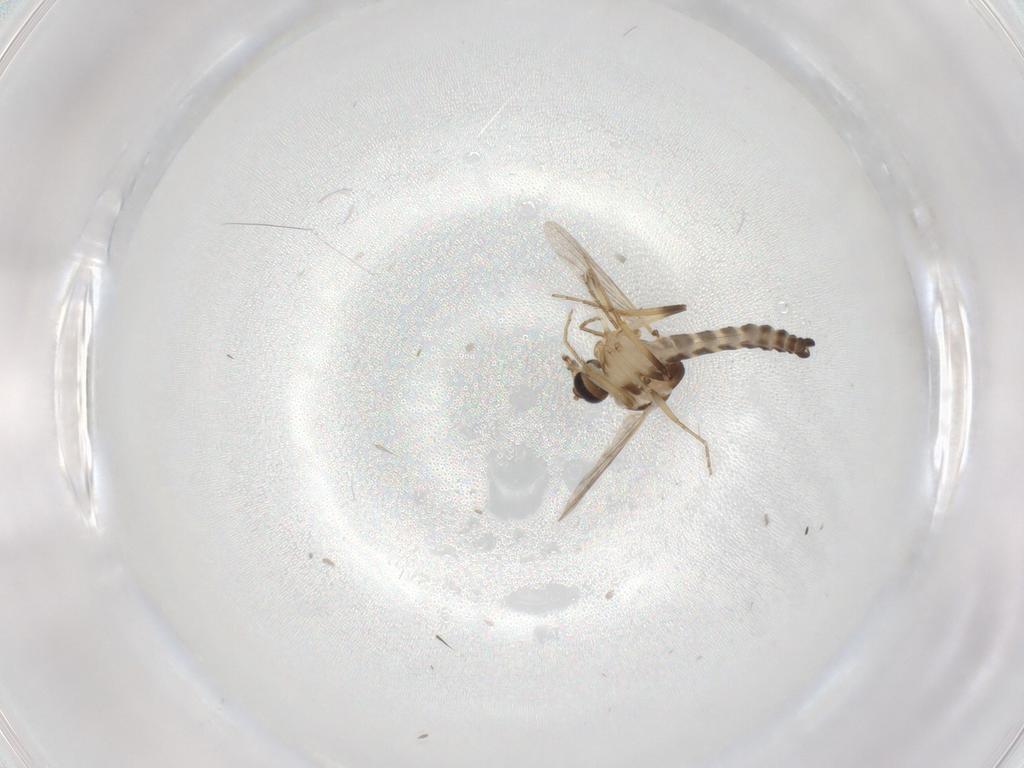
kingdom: Animalia
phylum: Arthropoda
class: Insecta
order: Diptera
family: Ceratopogonidae
